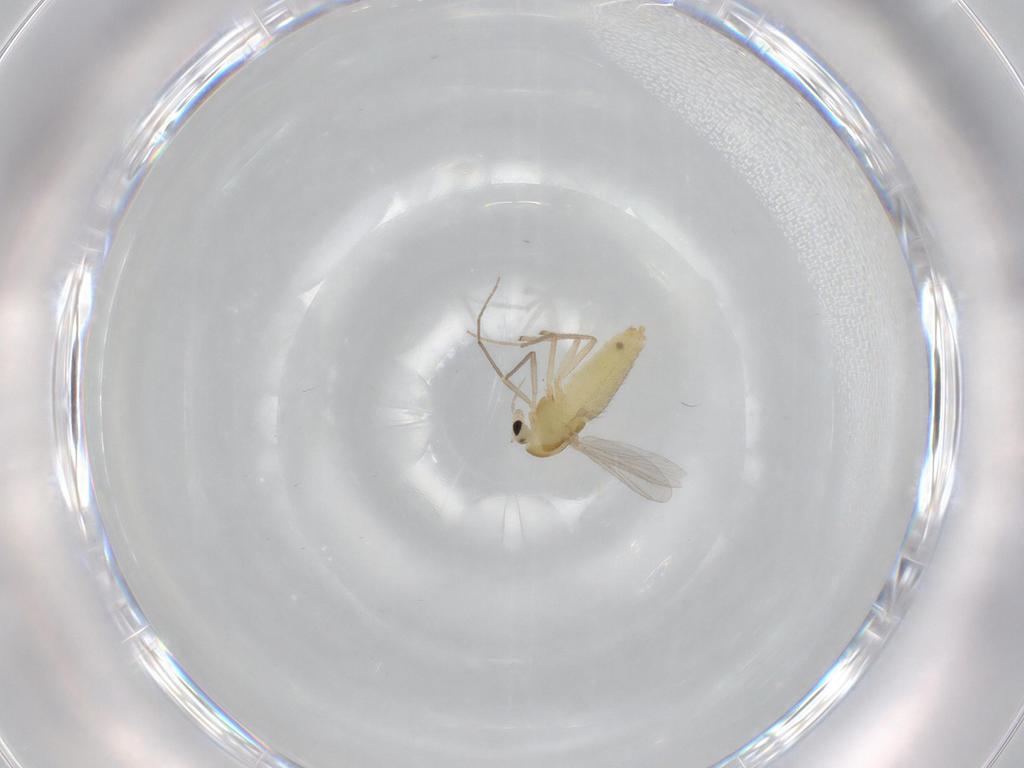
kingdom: Animalia
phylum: Arthropoda
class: Insecta
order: Diptera
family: Chironomidae
